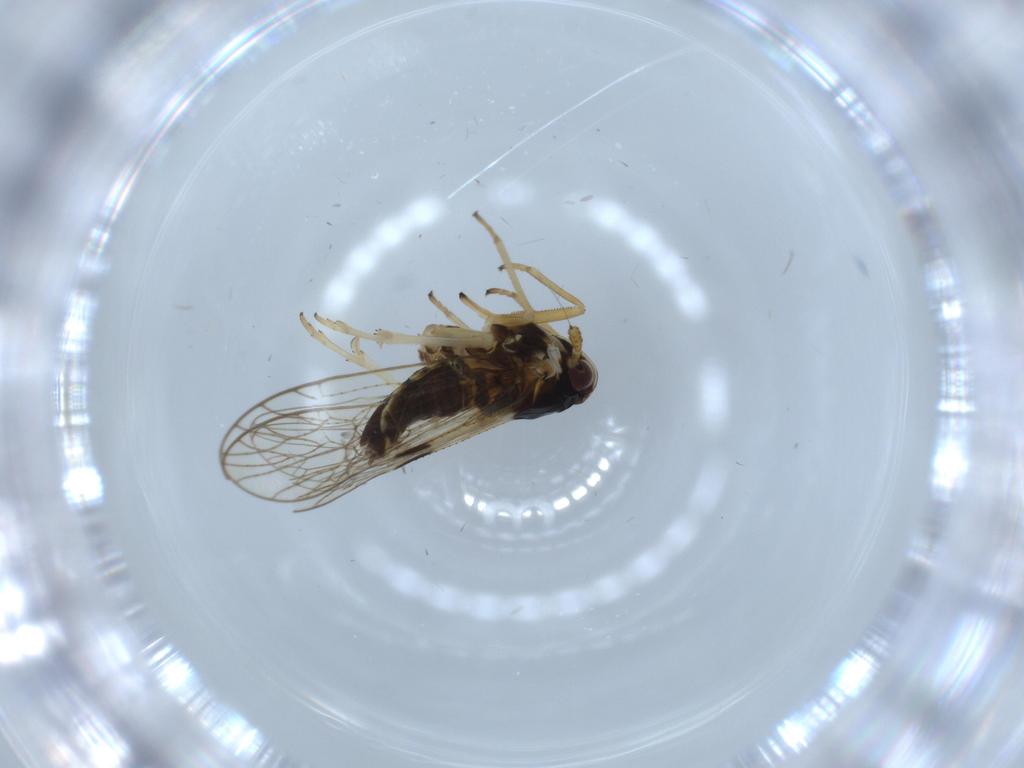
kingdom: Animalia
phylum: Arthropoda
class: Insecta
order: Hemiptera
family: Cicadellidae
